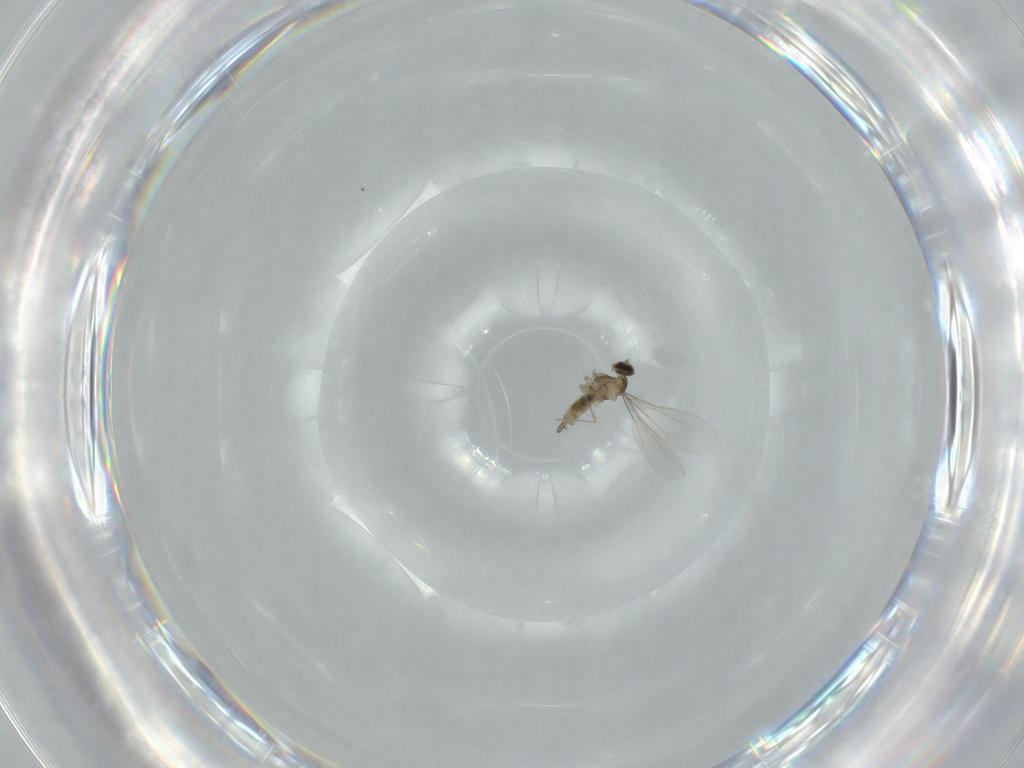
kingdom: Animalia
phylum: Arthropoda
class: Insecta
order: Diptera
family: Cecidomyiidae
